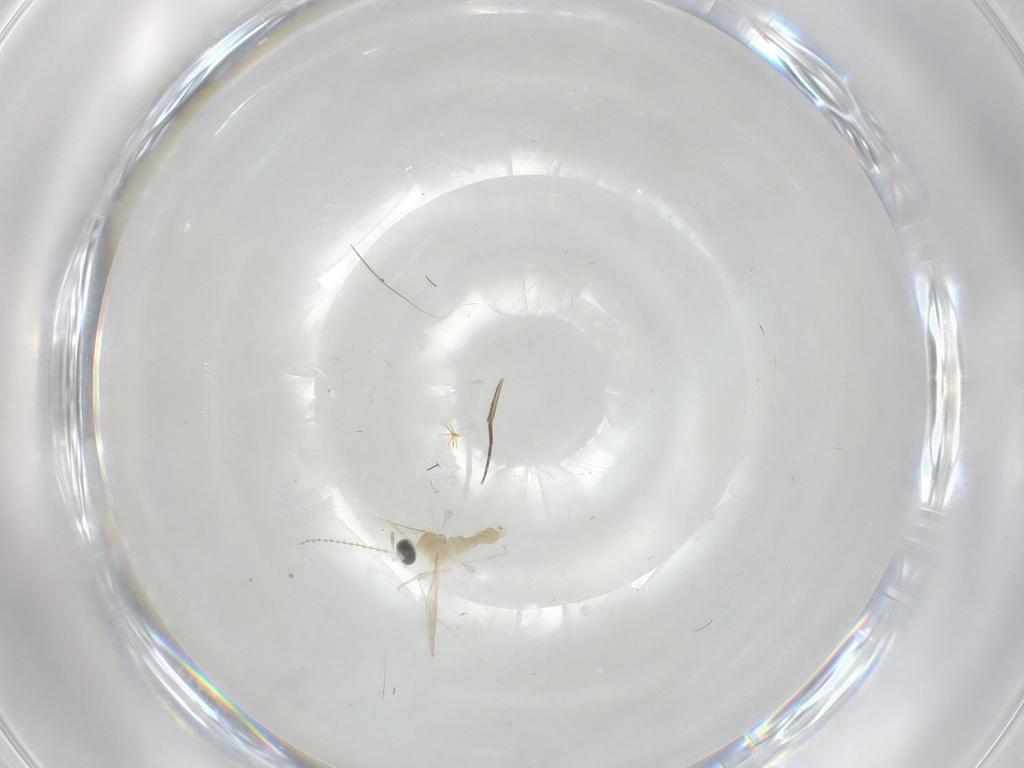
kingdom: Animalia
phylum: Arthropoda
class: Insecta
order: Diptera
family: Cecidomyiidae
